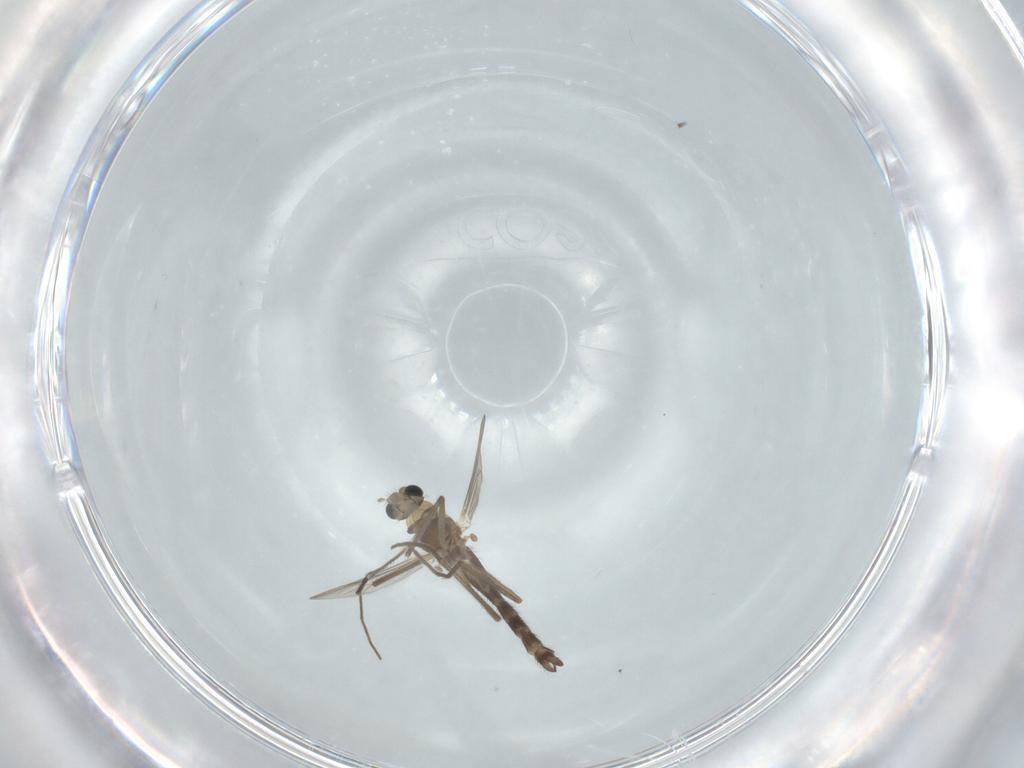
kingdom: Animalia
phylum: Arthropoda
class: Insecta
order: Diptera
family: Chironomidae
